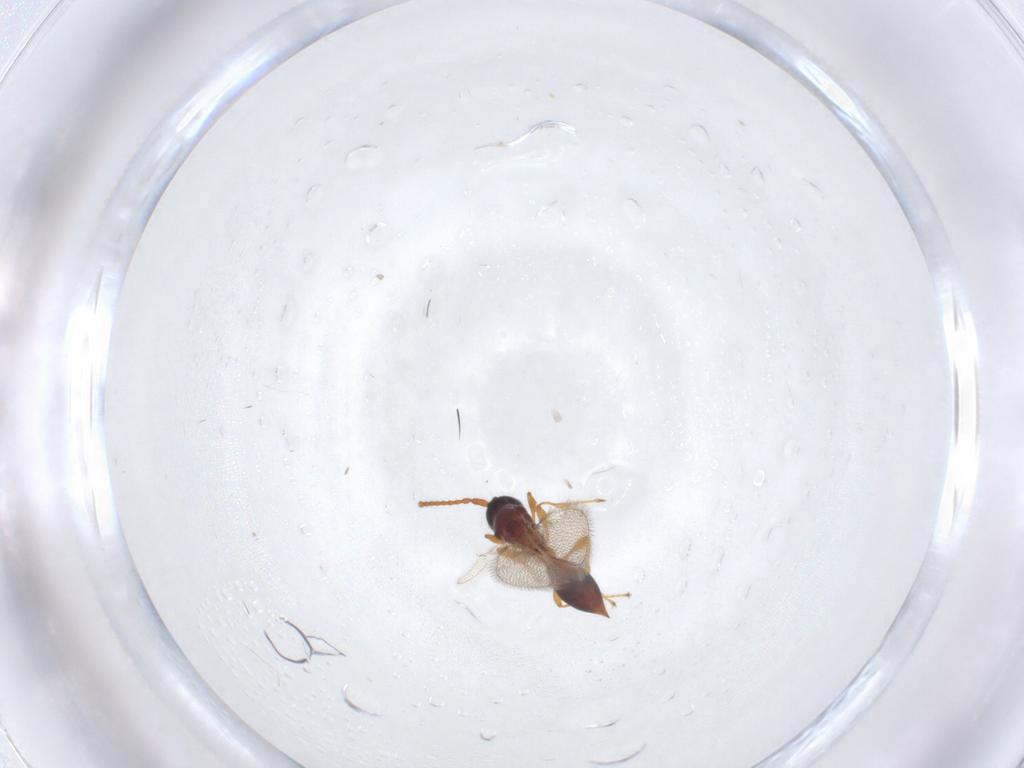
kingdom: Animalia
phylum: Arthropoda
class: Insecta
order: Hymenoptera
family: Diapriidae
